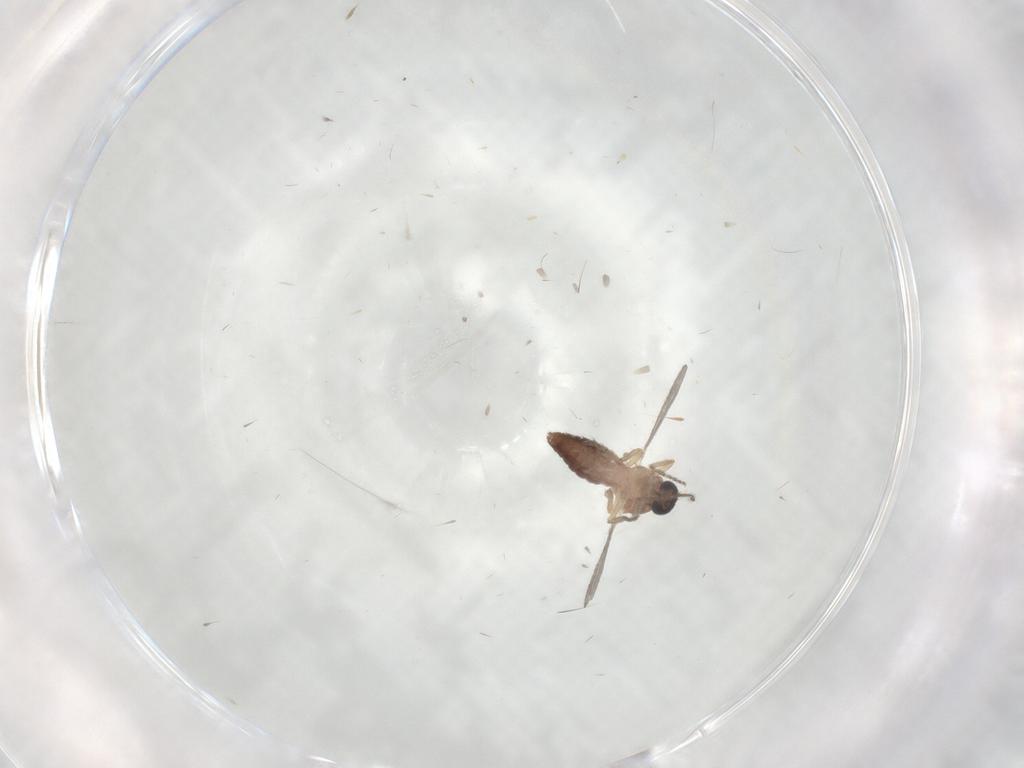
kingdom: Animalia
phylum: Arthropoda
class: Insecta
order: Diptera
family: Ceratopogonidae
